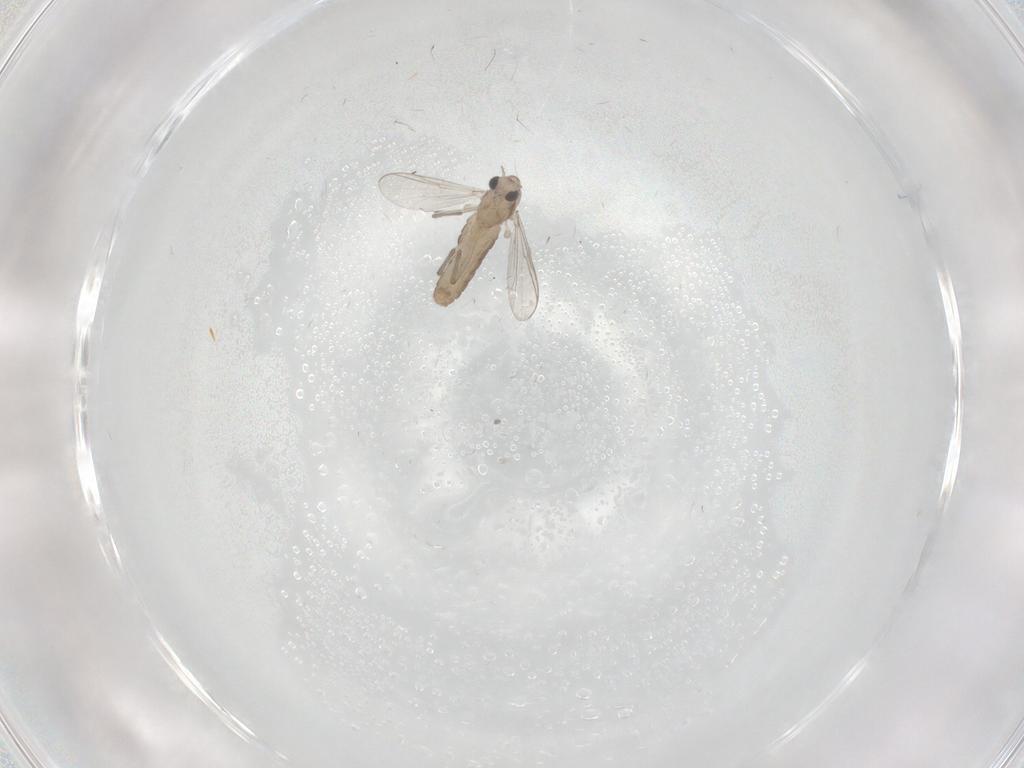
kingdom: Animalia
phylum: Arthropoda
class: Insecta
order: Diptera
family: Chironomidae
